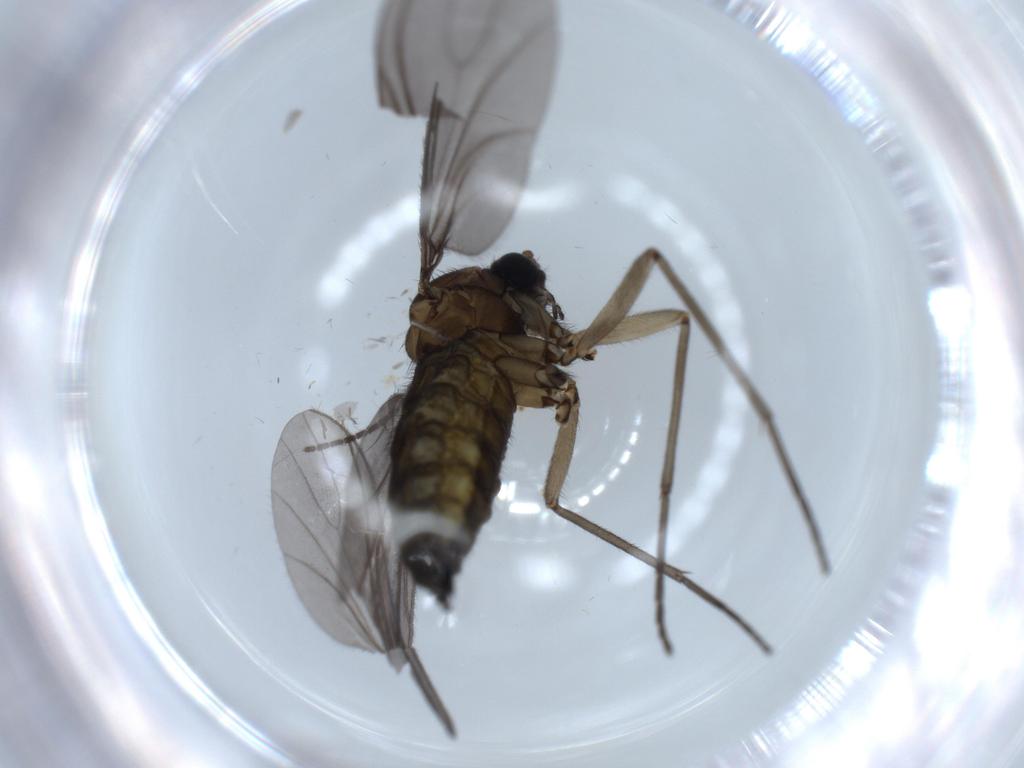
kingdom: Animalia
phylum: Arthropoda
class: Insecta
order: Diptera
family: Sciaridae
